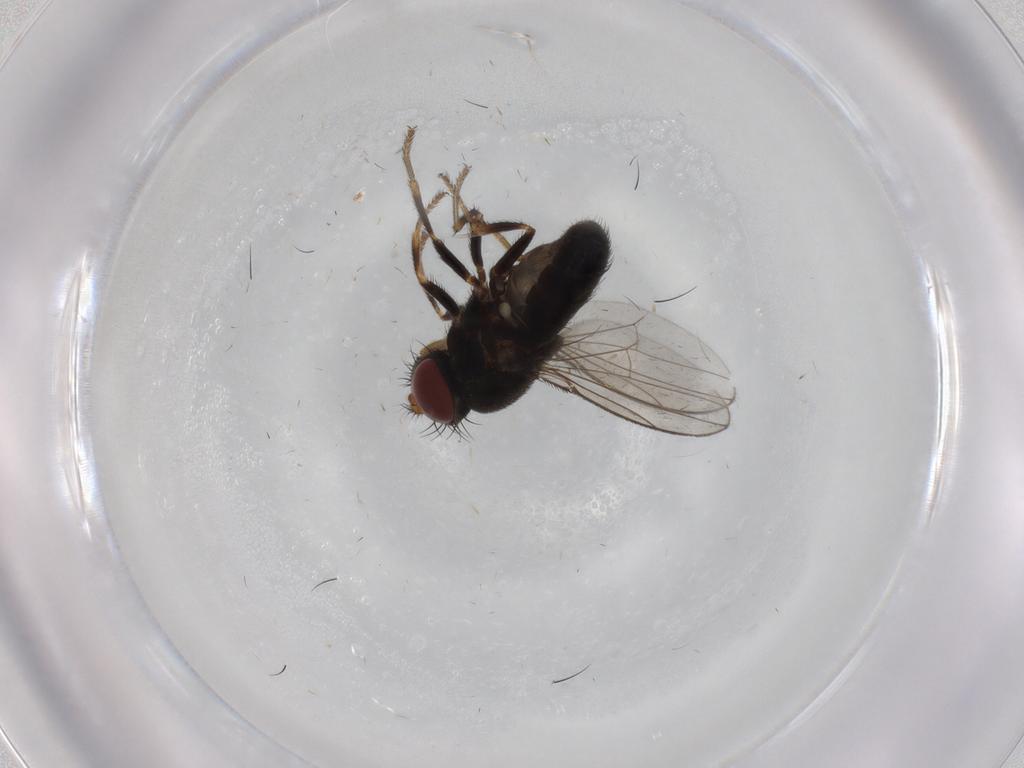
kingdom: Animalia
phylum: Arthropoda
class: Insecta
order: Diptera
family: Ephydridae
